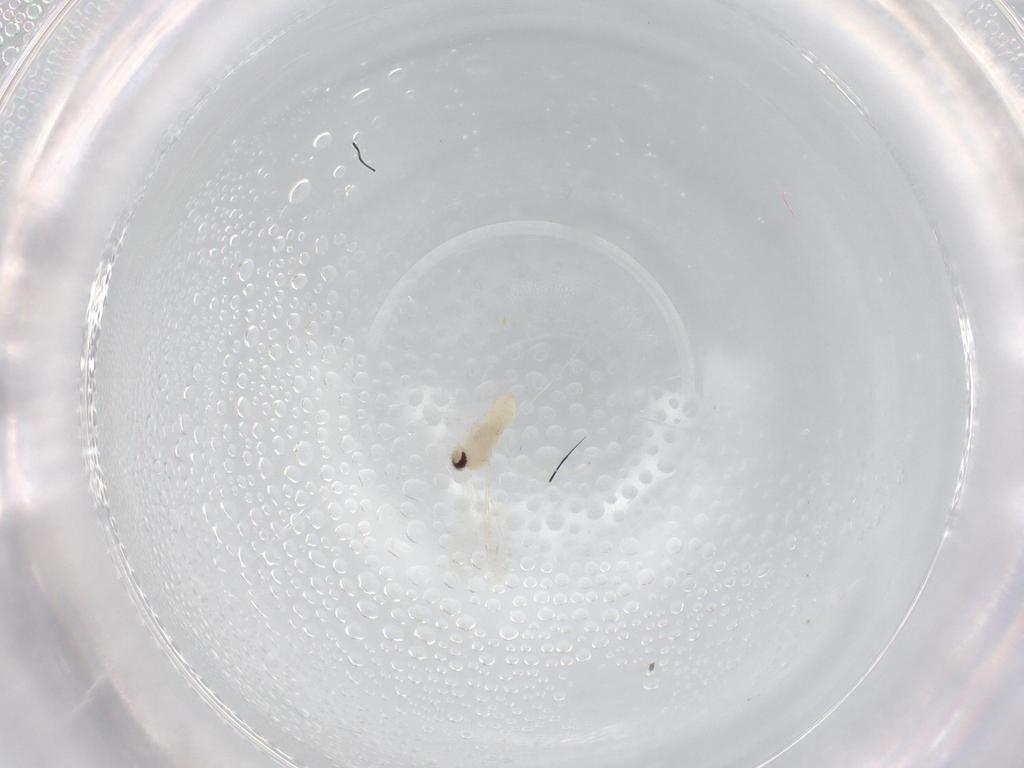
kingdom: Animalia
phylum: Arthropoda
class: Insecta
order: Diptera
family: Cecidomyiidae
